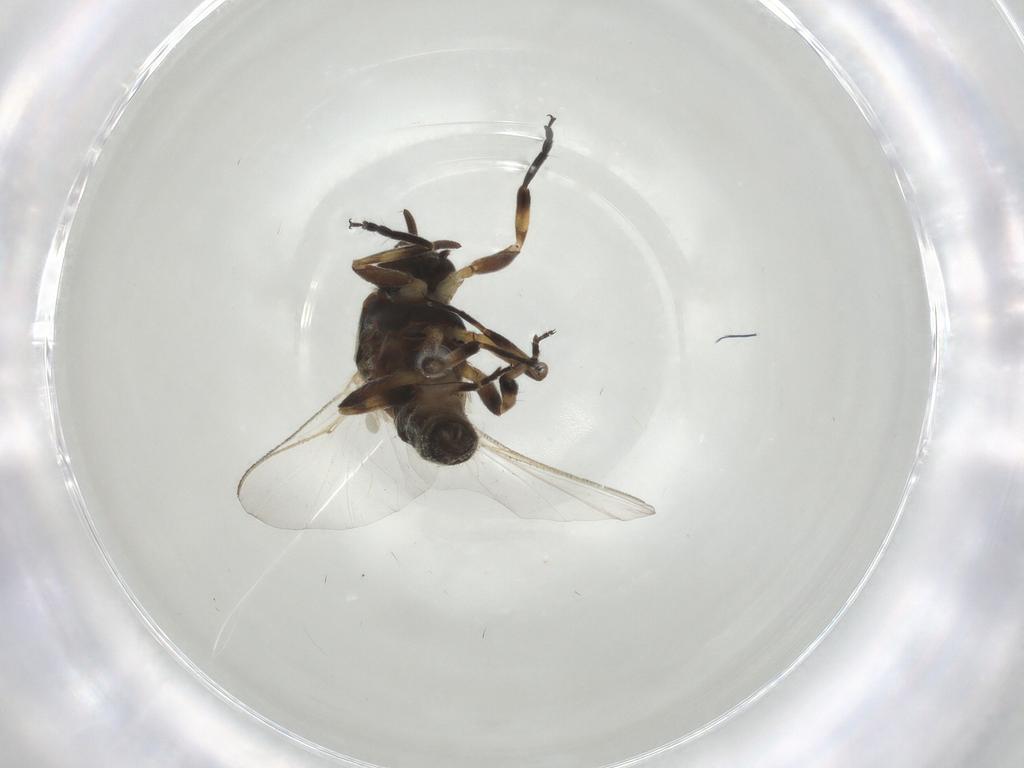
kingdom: Animalia
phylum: Arthropoda
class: Insecta
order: Diptera
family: Chironomidae
